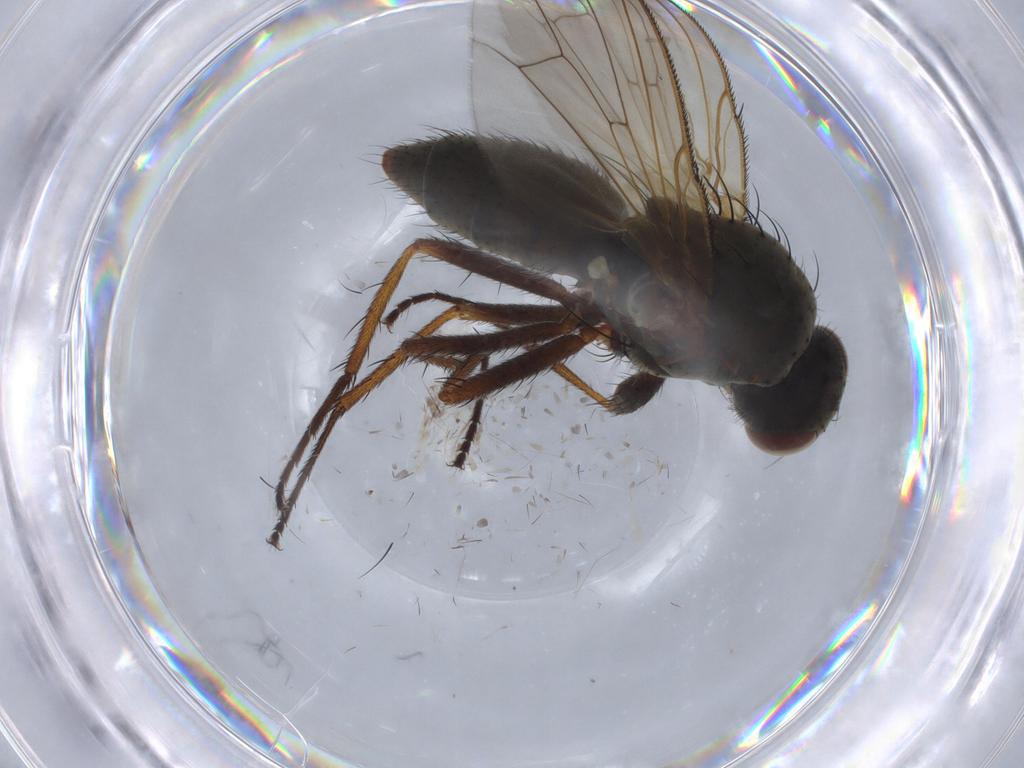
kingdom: Animalia
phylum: Arthropoda
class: Insecta
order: Diptera
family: Anthomyiidae
